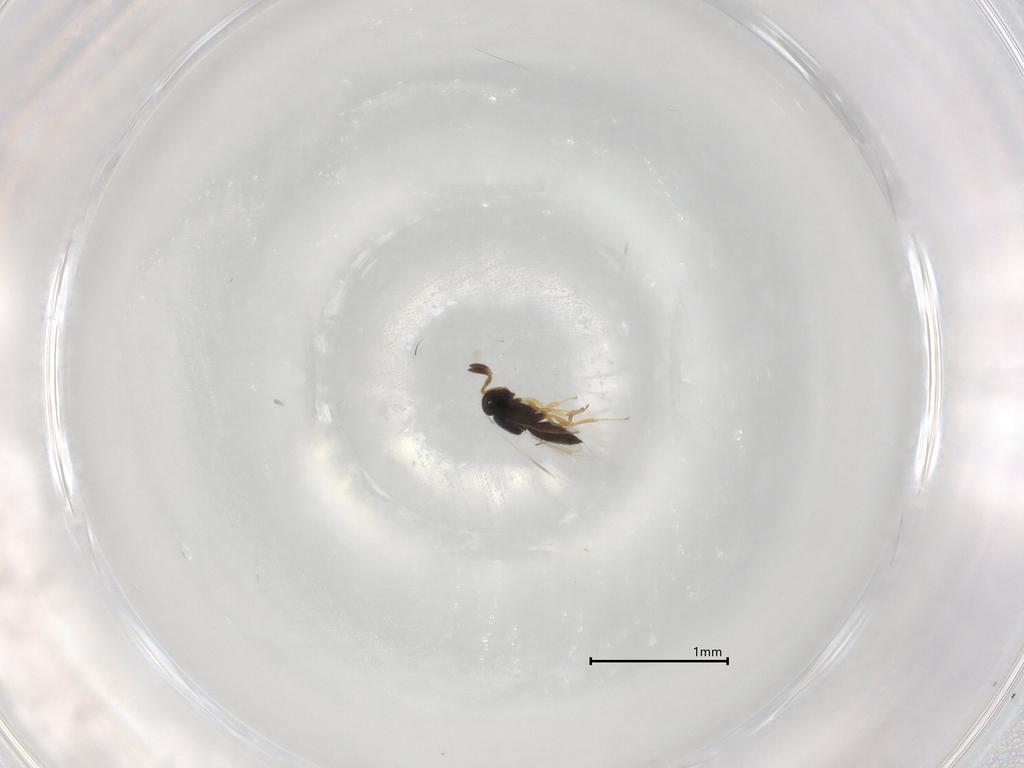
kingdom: Animalia
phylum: Arthropoda
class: Insecta
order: Hymenoptera
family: Scelionidae
